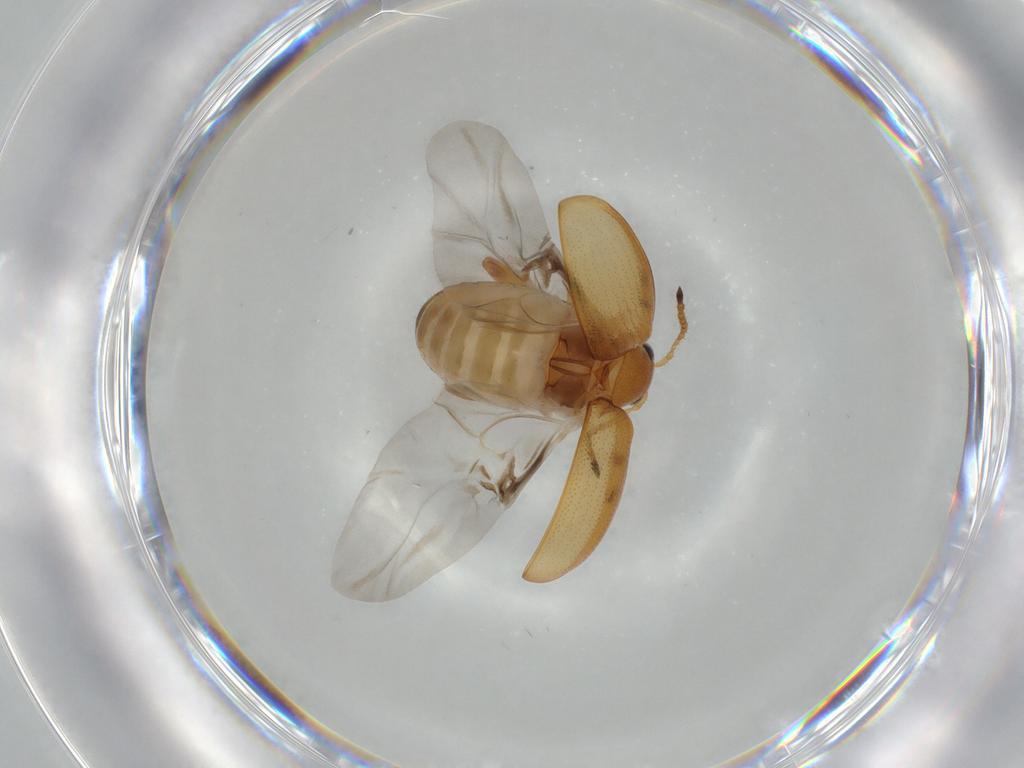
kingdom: Animalia
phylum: Arthropoda
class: Insecta
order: Coleoptera
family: Chrysomelidae
